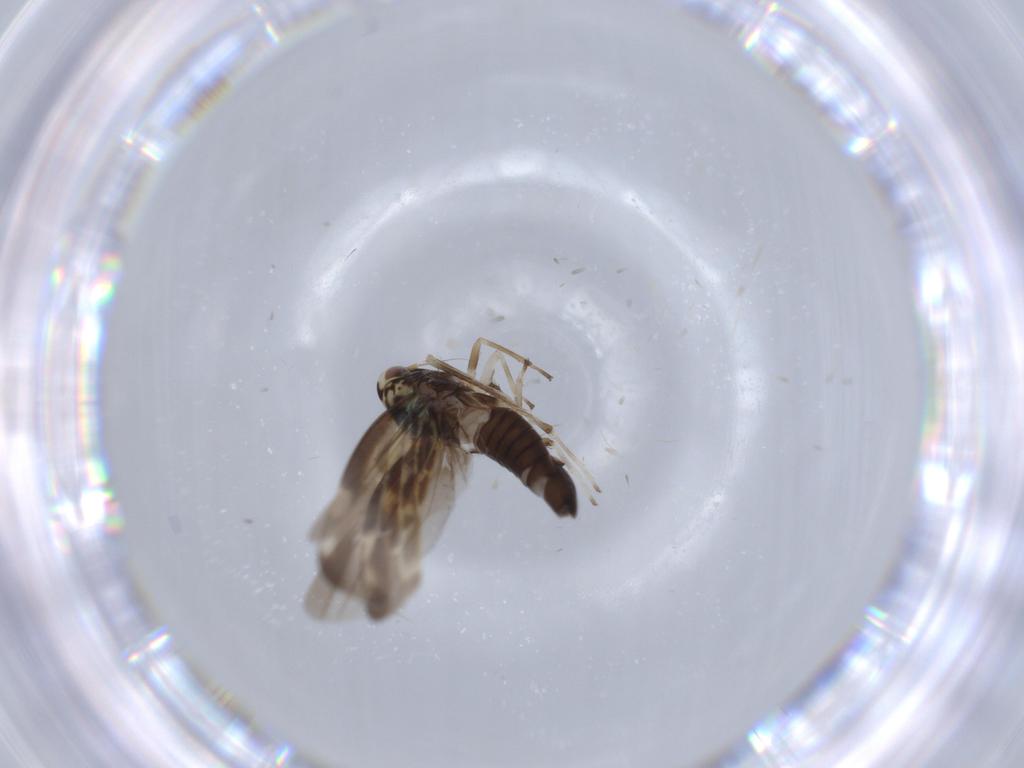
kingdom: Animalia
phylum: Arthropoda
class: Insecta
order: Hemiptera
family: Cicadellidae
